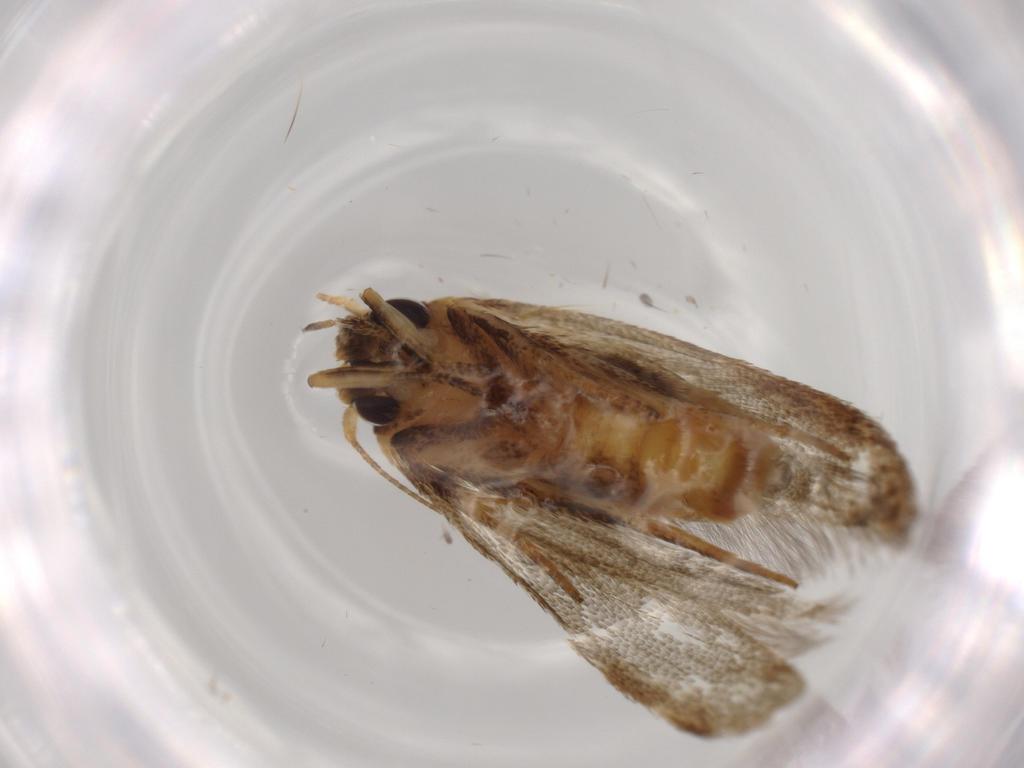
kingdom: Animalia
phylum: Arthropoda
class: Insecta
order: Lepidoptera
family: Blastobasidae
